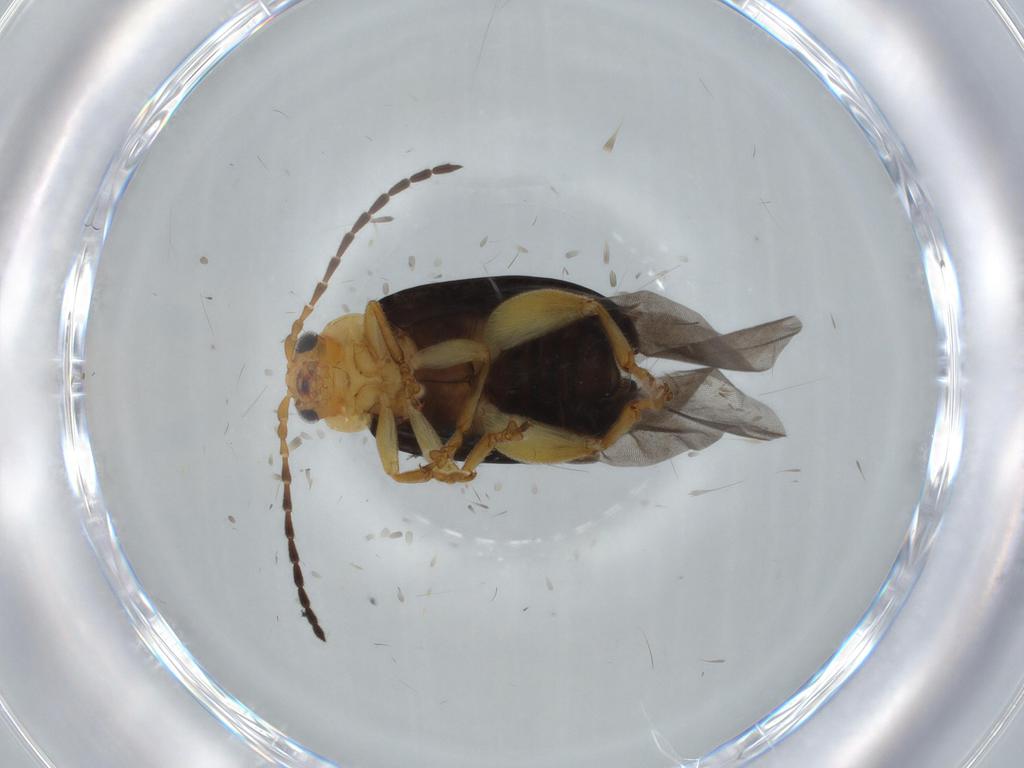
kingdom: Animalia
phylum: Arthropoda
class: Insecta
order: Coleoptera
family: Chrysomelidae
